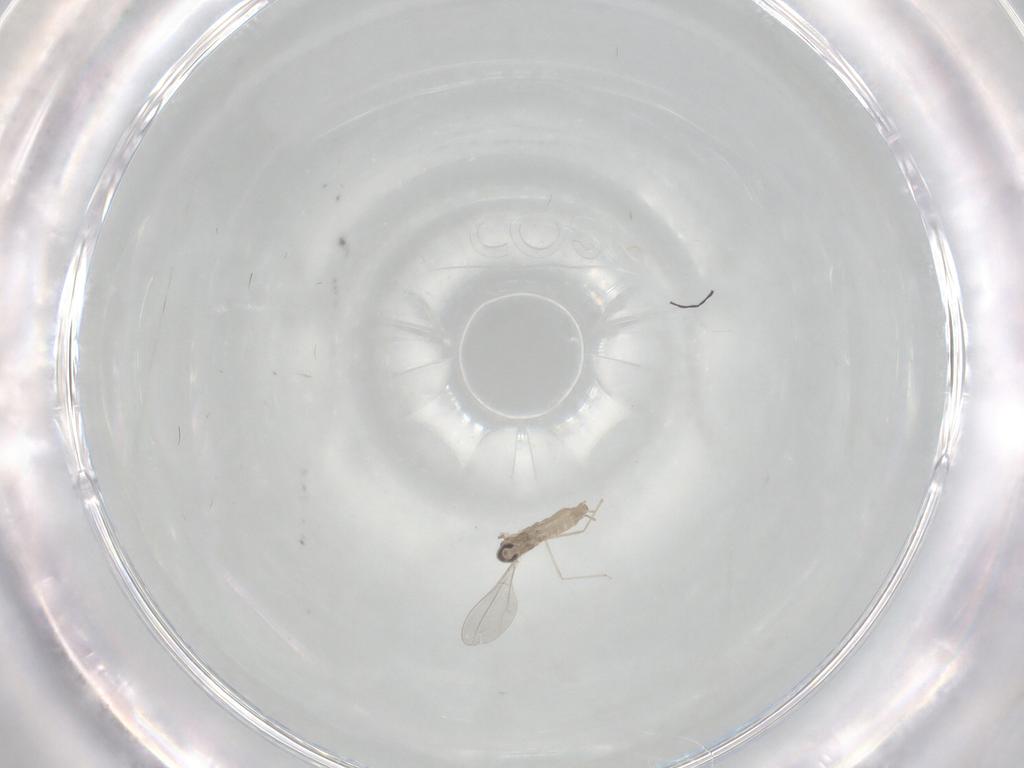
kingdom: Animalia
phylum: Arthropoda
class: Insecta
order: Diptera
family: Cecidomyiidae
